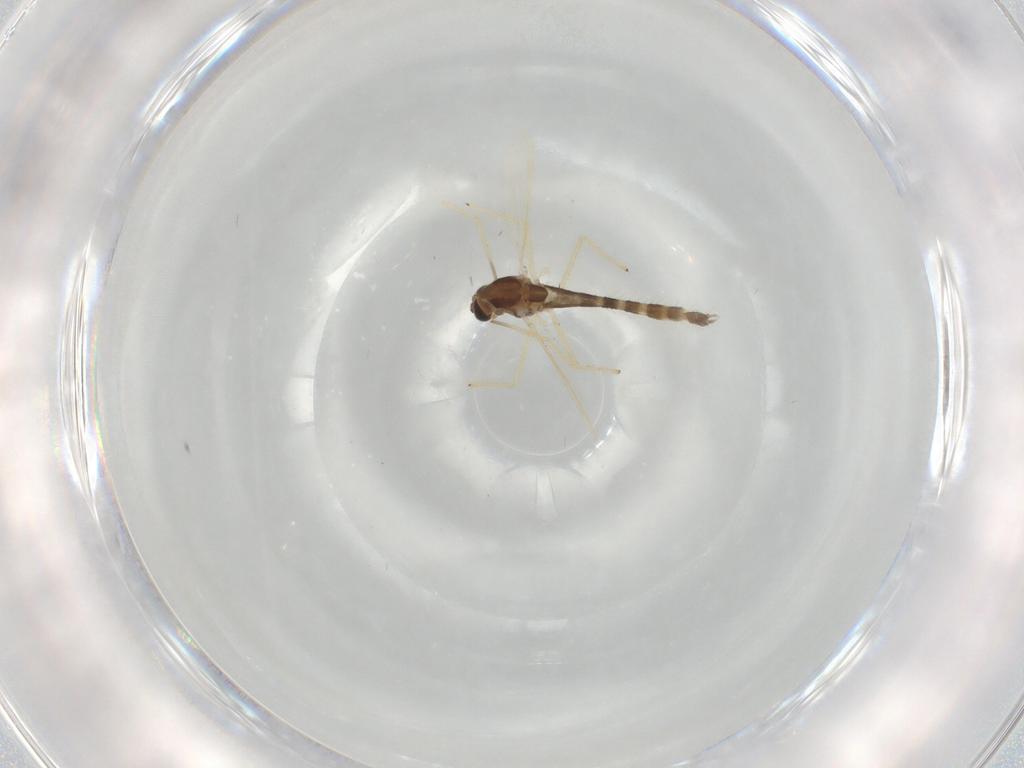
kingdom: Animalia
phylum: Arthropoda
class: Insecta
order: Diptera
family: Chironomidae
